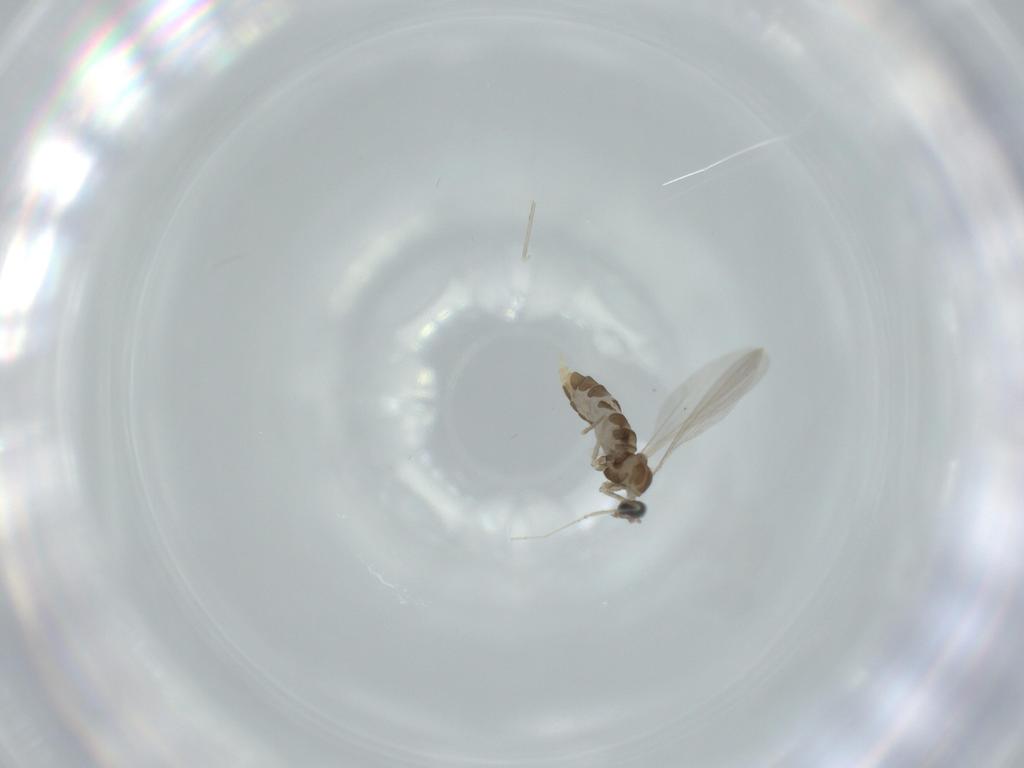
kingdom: Animalia
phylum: Arthropoda
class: Insecta
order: Diptera
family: Cecidomyiidae
